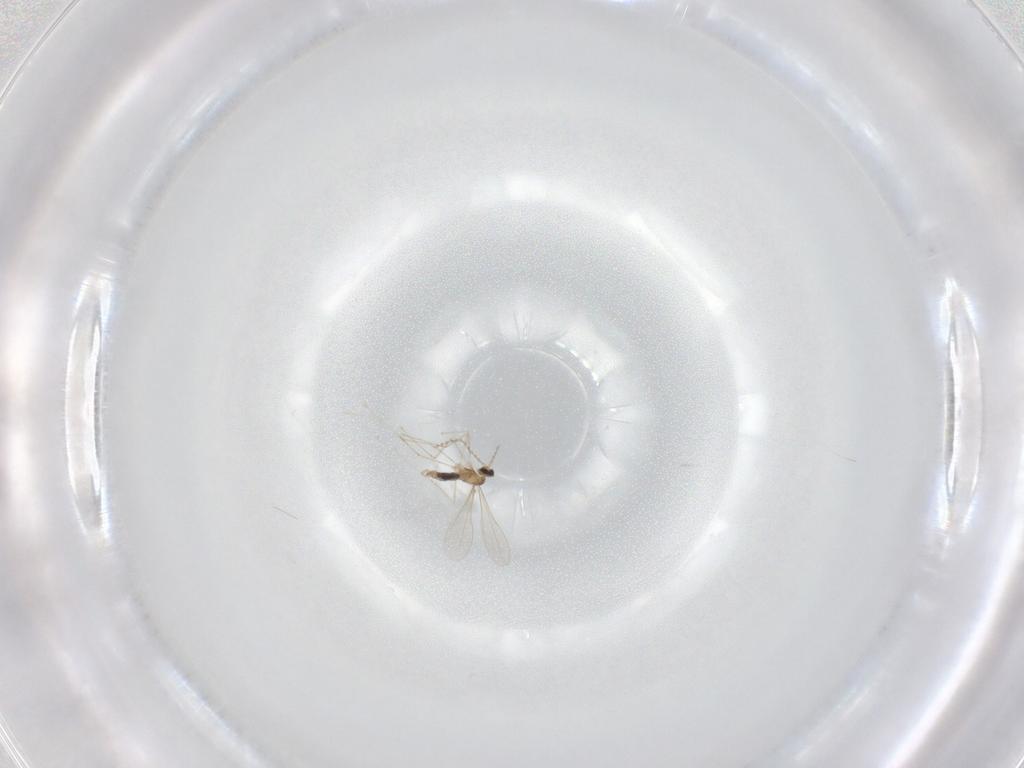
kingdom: Animalia
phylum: Arthropoda
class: Insecta
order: Diptera
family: Cecidomyiidae
